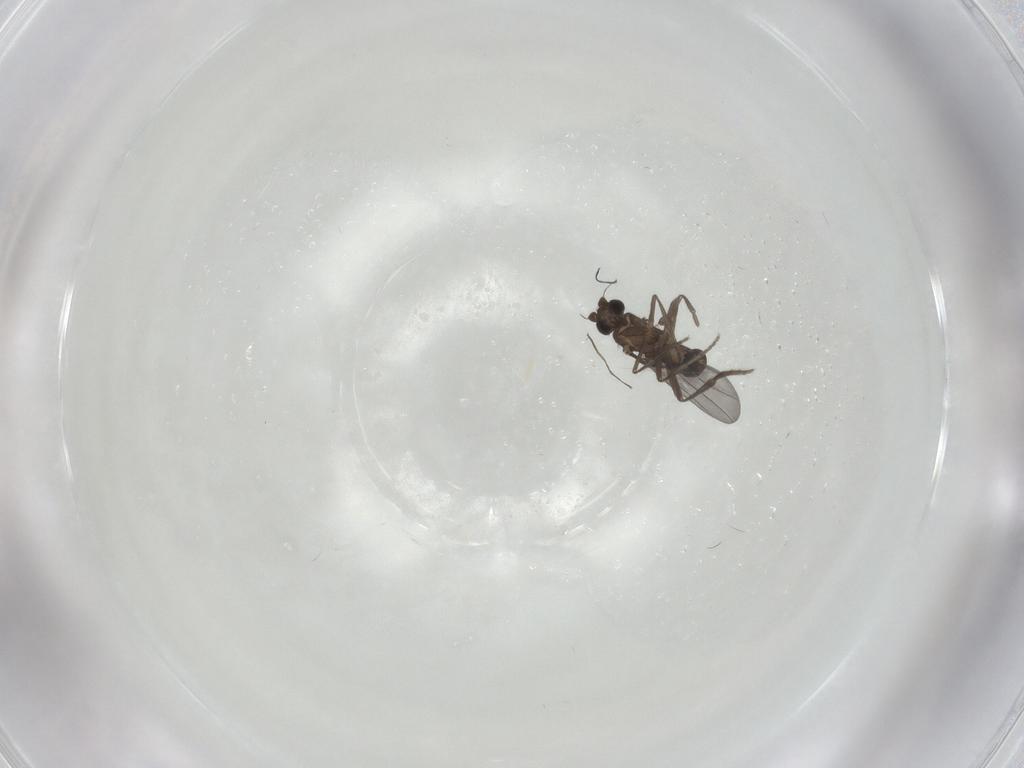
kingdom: Animalia
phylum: Arthropoda
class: Insecta
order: Diptera
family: Phoridae
